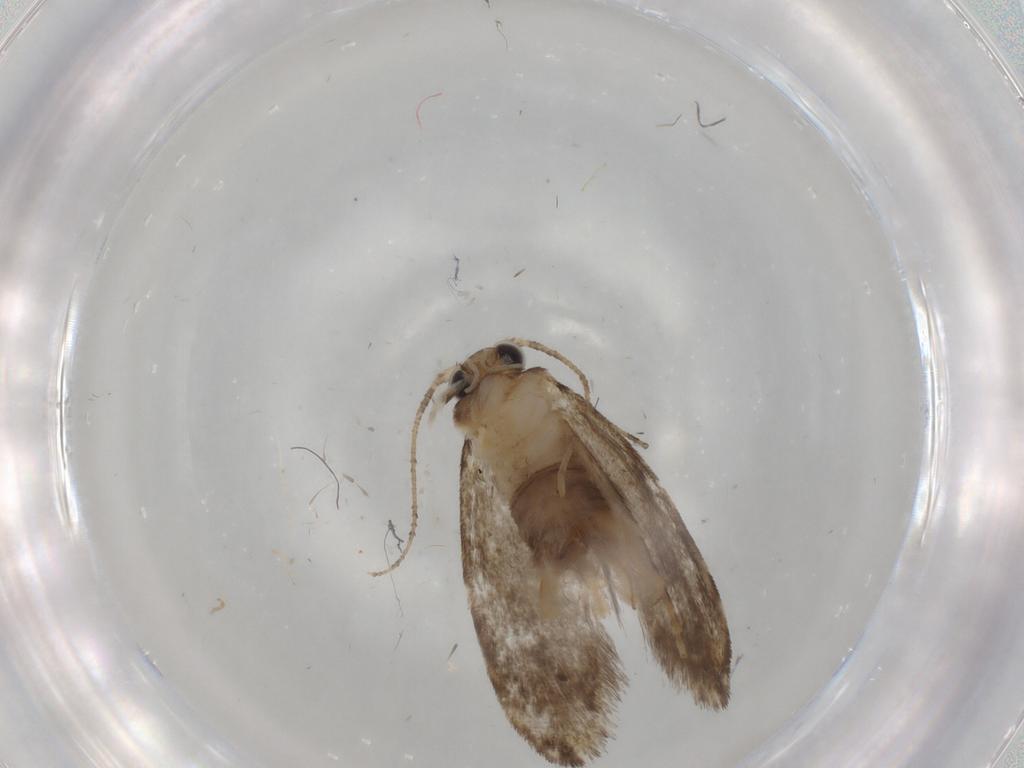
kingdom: Animalia
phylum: Arthropoda
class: Insecta
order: Lepidoptera
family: Tineidae
